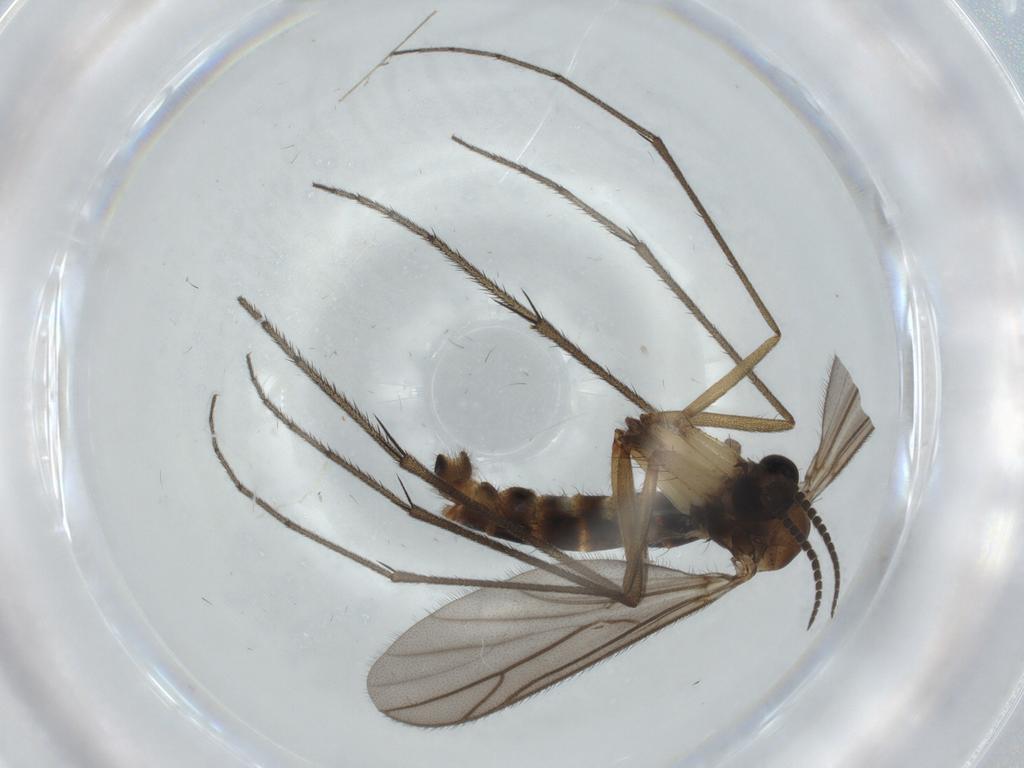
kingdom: Animalia
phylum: Arthropoda
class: Insecta
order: Diptera
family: Ditomyiidae
